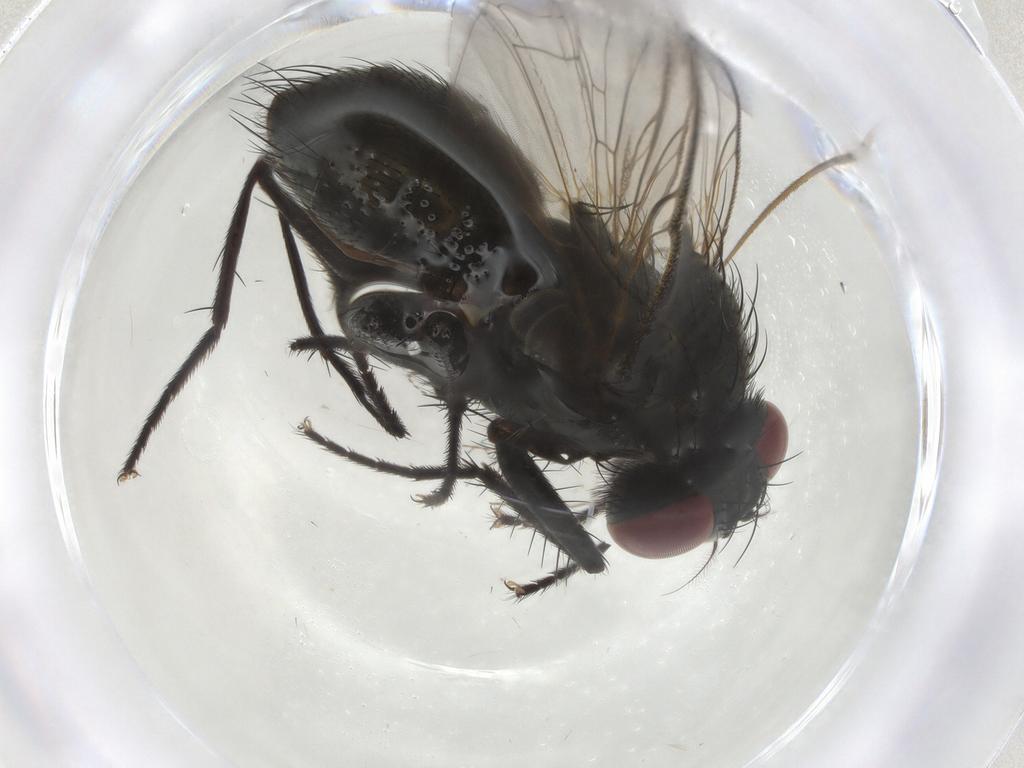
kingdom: Animalia
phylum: Arthropoda
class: Insecta
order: Diptera
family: Muscidae
